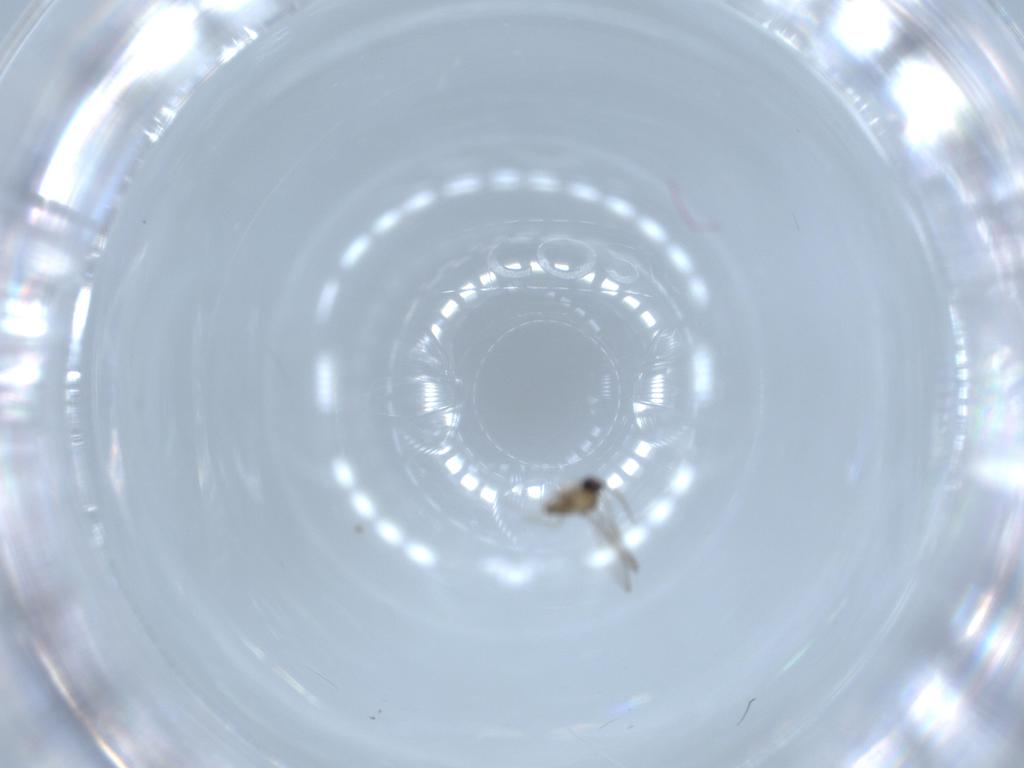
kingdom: Animalia
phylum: Arthropoda
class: Insecta
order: Diptera
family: Cecidomyiidae
